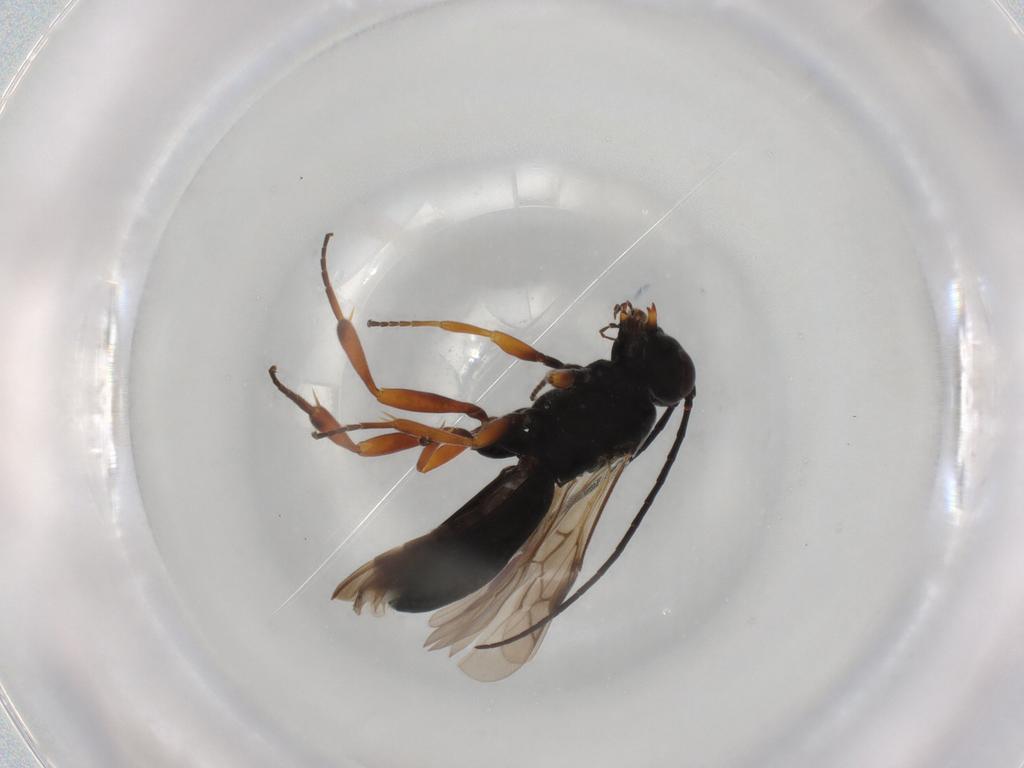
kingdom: Animalia
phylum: Arthropoda
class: Insecta
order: Hymenoptera
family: Braconidae
